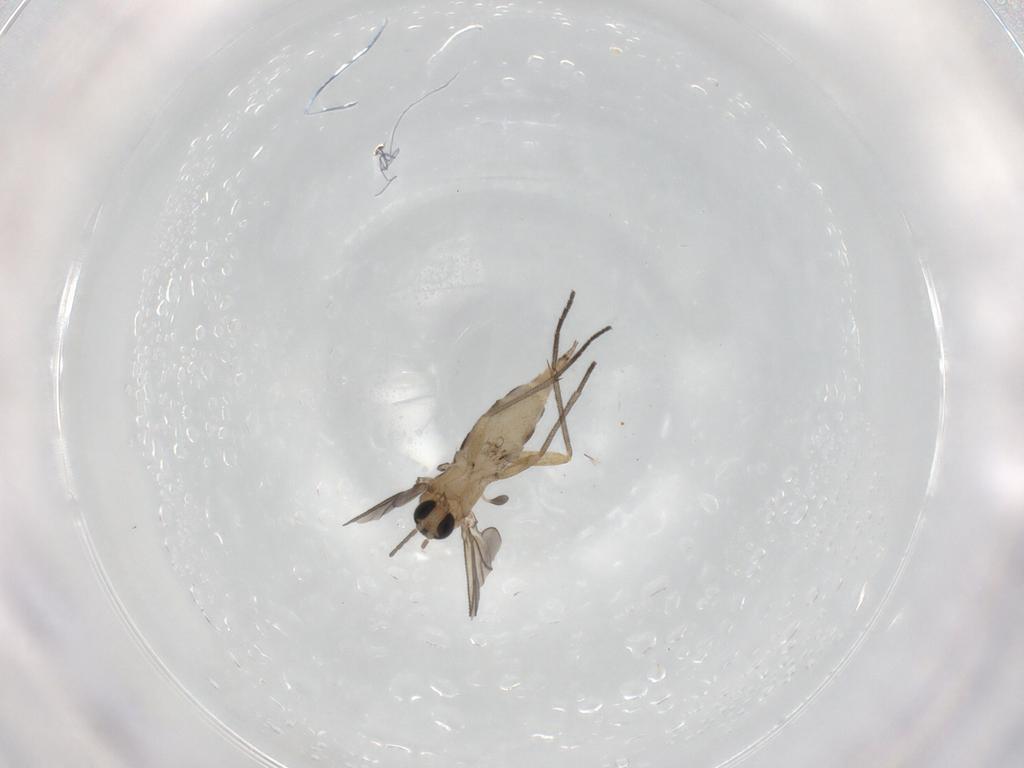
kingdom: Animalia
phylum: Arthropoda
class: Insecta
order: Diptera
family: Sciaridae
